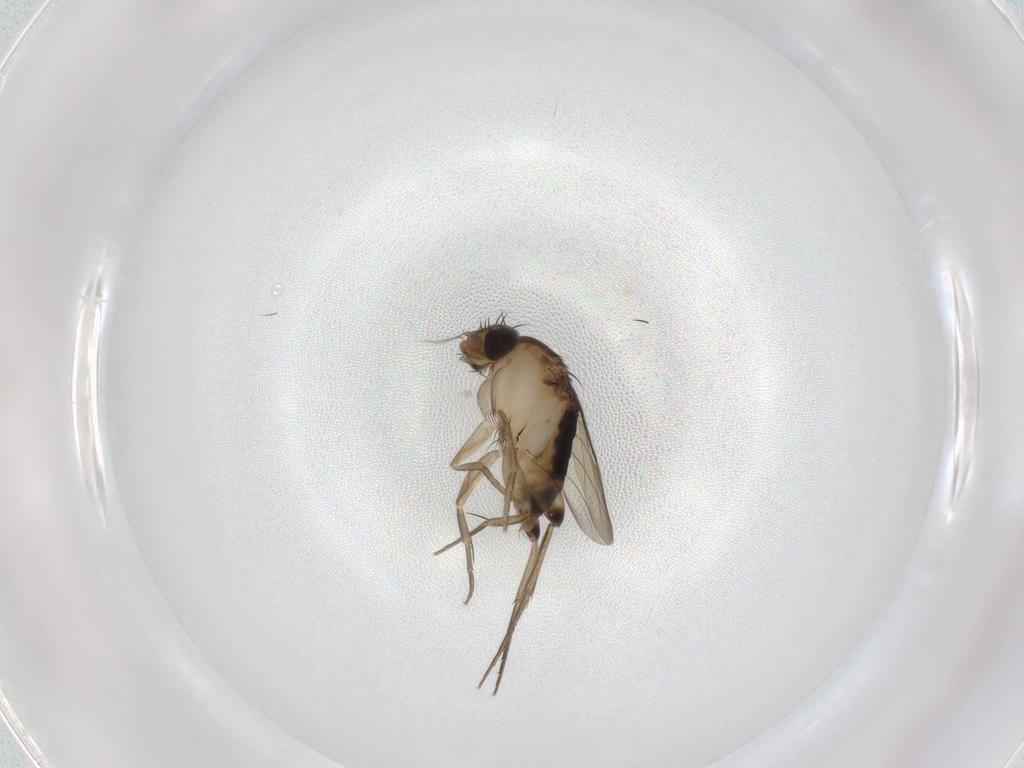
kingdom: Animalia
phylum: Arthropoda
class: Insecta
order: Diptera
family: Phoridae
